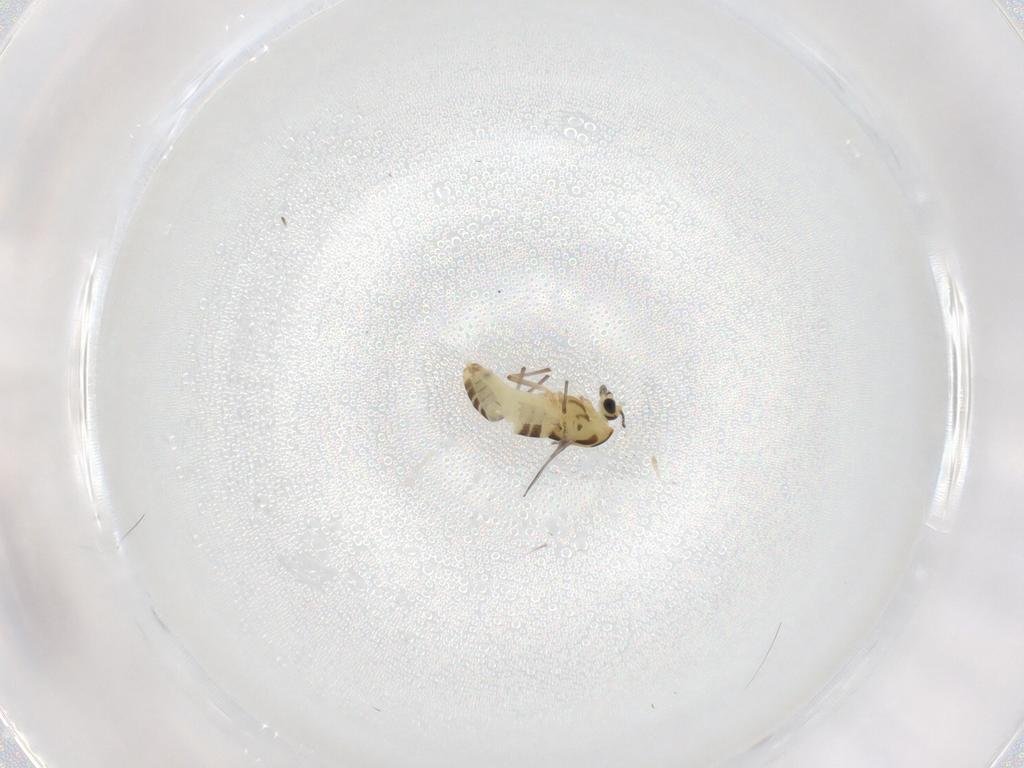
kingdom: Animalia
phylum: Arthropoda
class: Insecta
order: Diptera
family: Chironomidae
